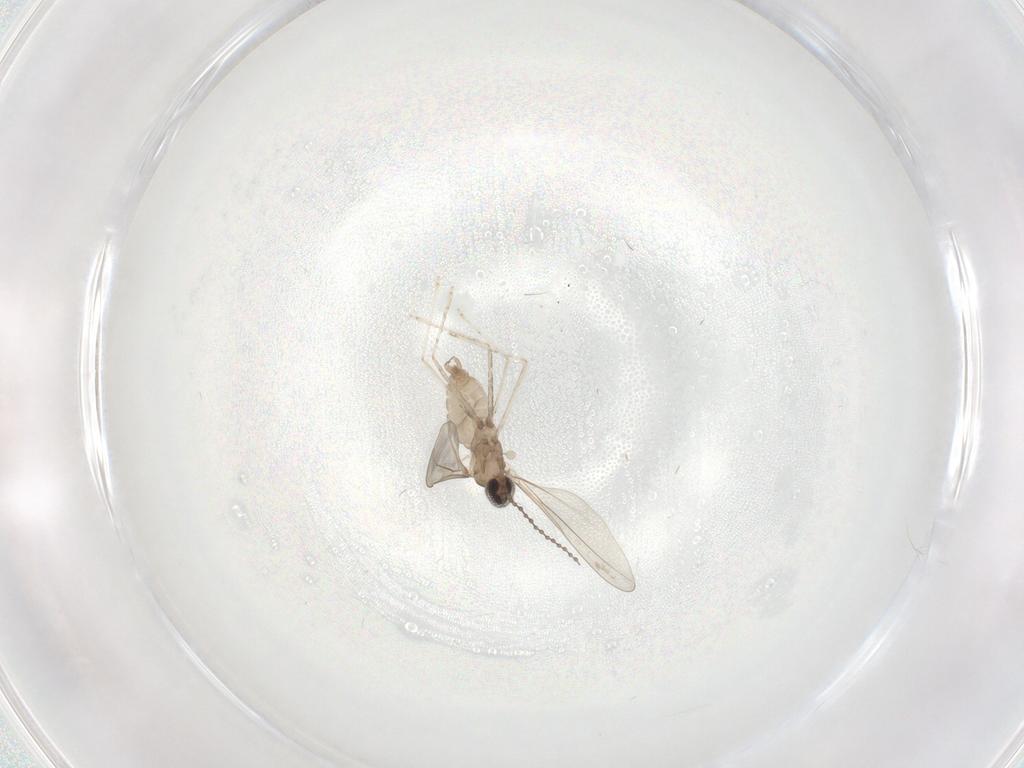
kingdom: Animalia
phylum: Arthropoda
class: Insecta
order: Diptera
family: Cecidomyiidae
